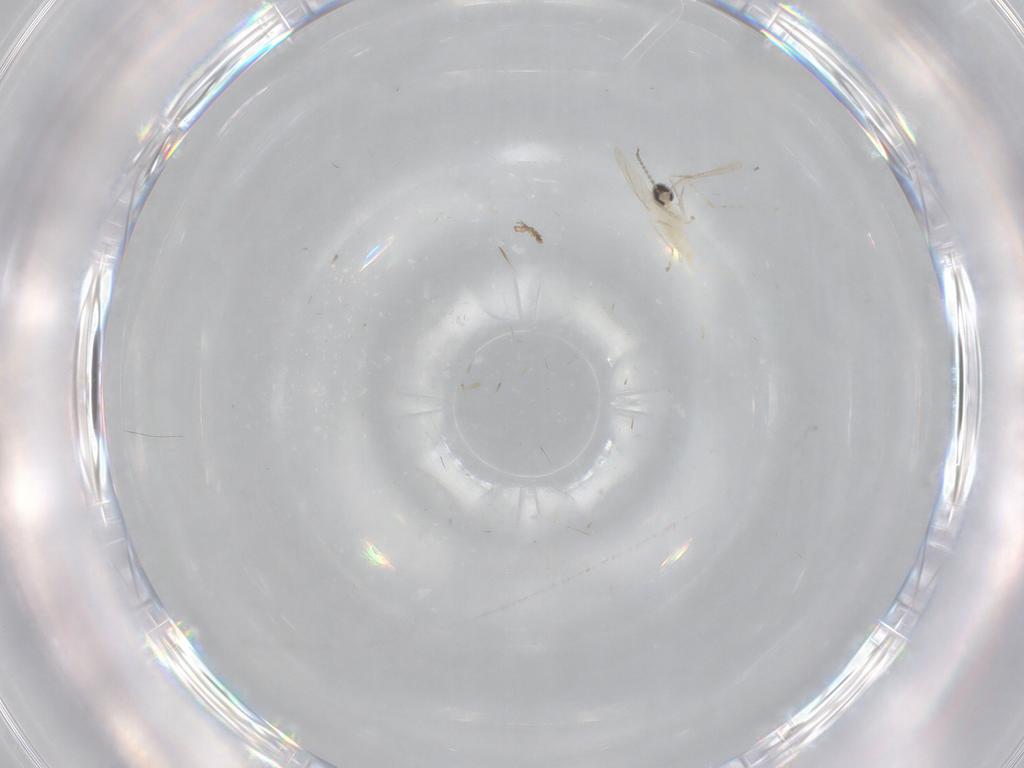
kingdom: Animalia
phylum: Arthropoda
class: Insecta
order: Diptera
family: Cecidomyiidae
